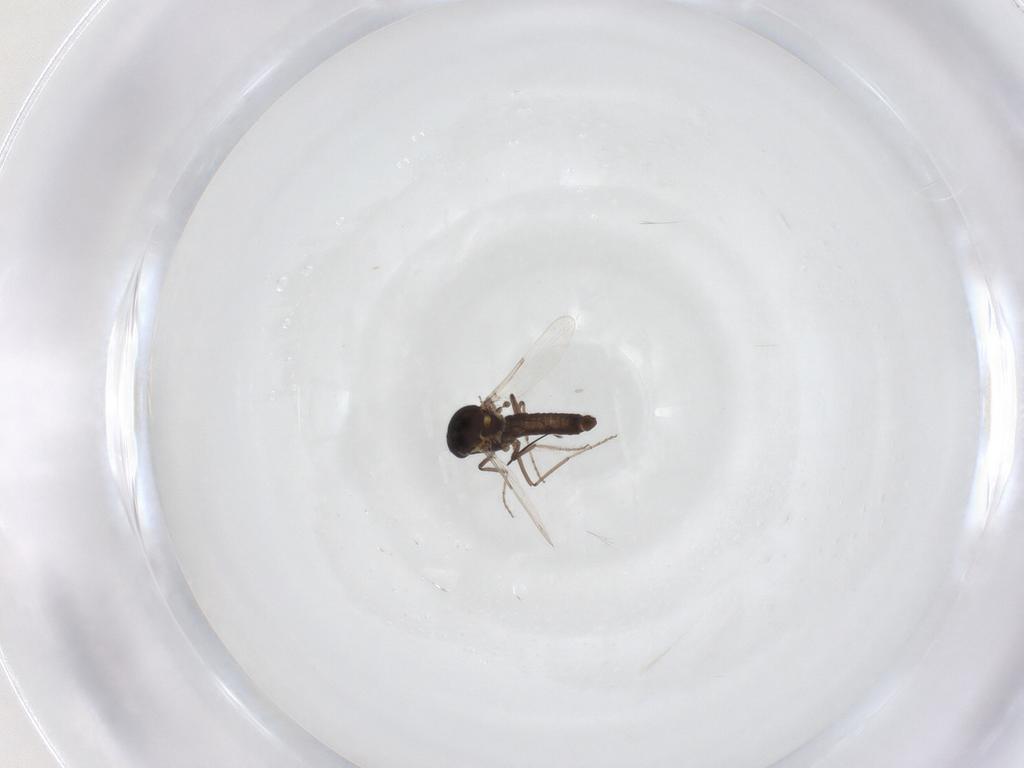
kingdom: Animalia
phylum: Arthropoda
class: Insecta
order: Diptera
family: Ceratopogonidae
